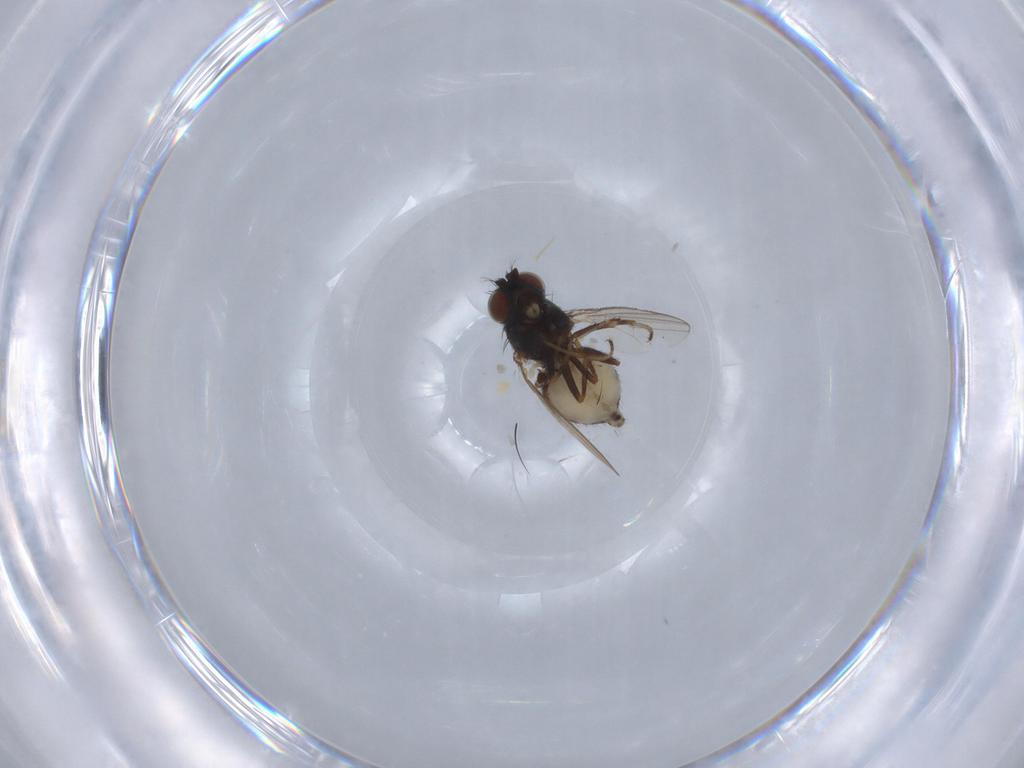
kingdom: Animalia
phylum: Arthropoda
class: Insecta
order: Diptera
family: Ephydridae
